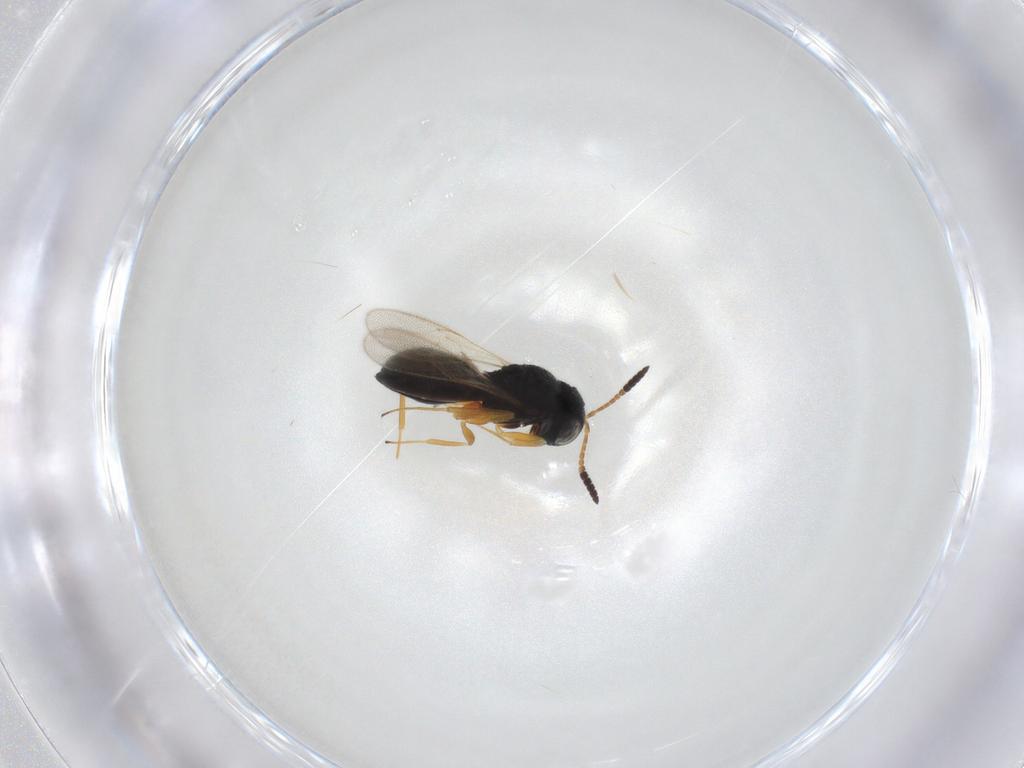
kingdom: Animalia
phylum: Arthropoda
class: Insecta
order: Hymenoptera
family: Scelionidae
